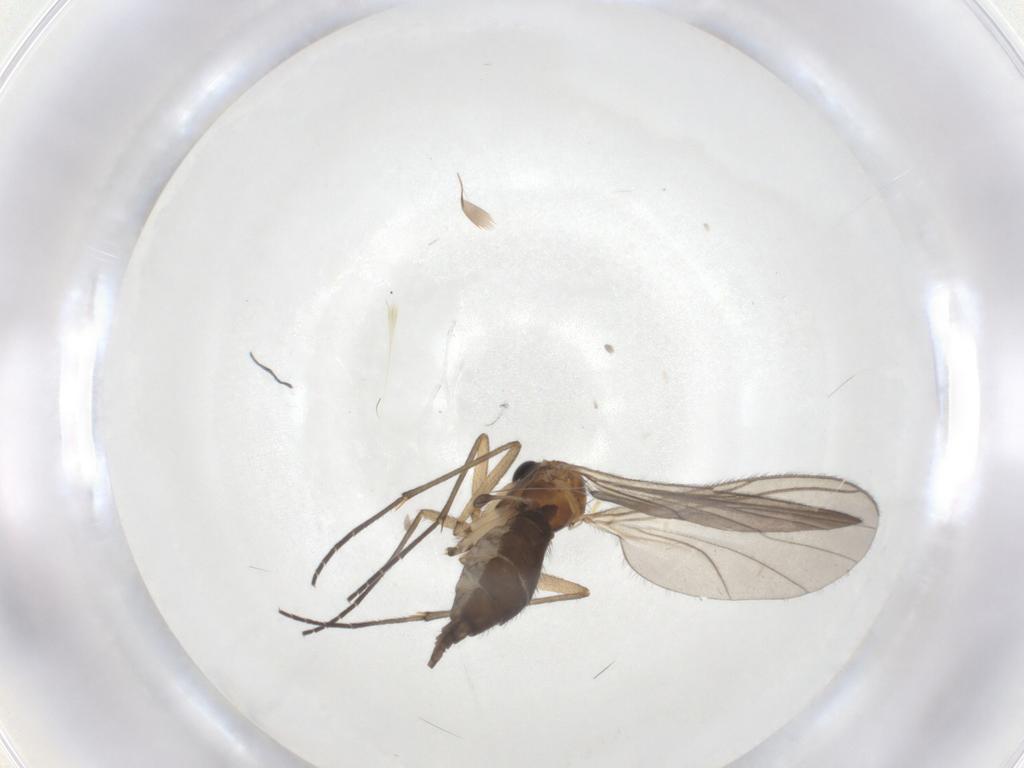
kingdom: Animalia
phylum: Arthropoda
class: Insecta
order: Diptera
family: Sciaridae
